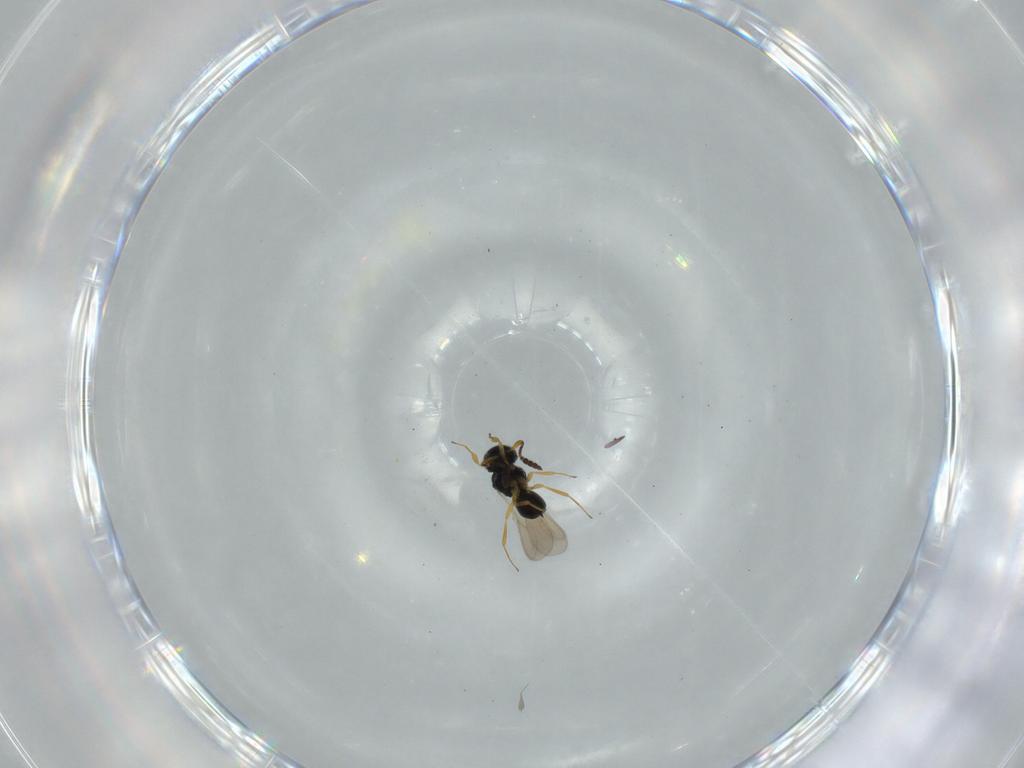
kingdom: Animalia
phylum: Arthropoda
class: Insecta
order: Hymenoptera
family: Scelionidae
